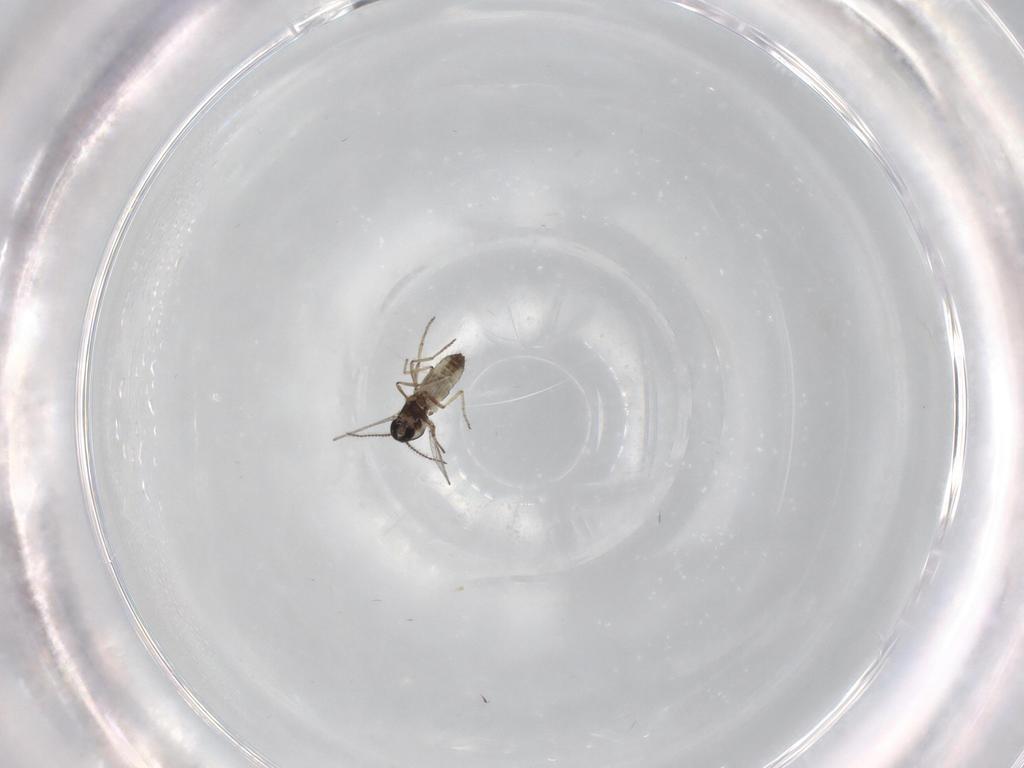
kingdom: Animalia
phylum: Arthropoda
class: Insecta
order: Diptera
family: Ceratopogonidae
